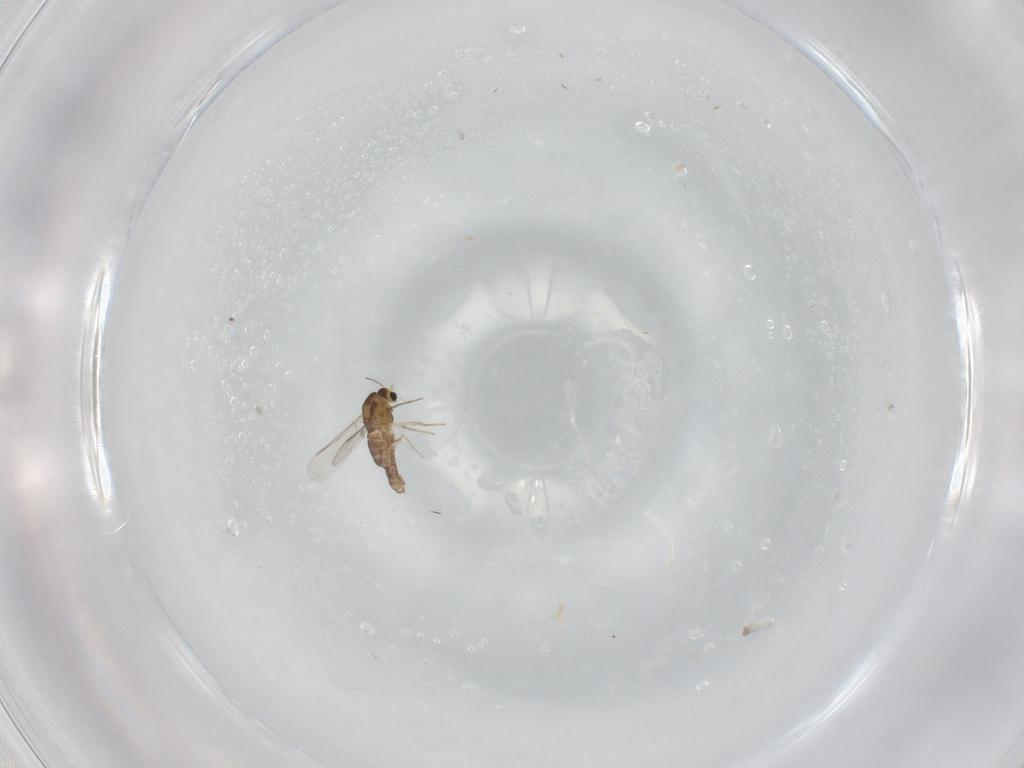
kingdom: Animalia
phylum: Arthropoda
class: Insecta
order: Diptera
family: Chironomidae
